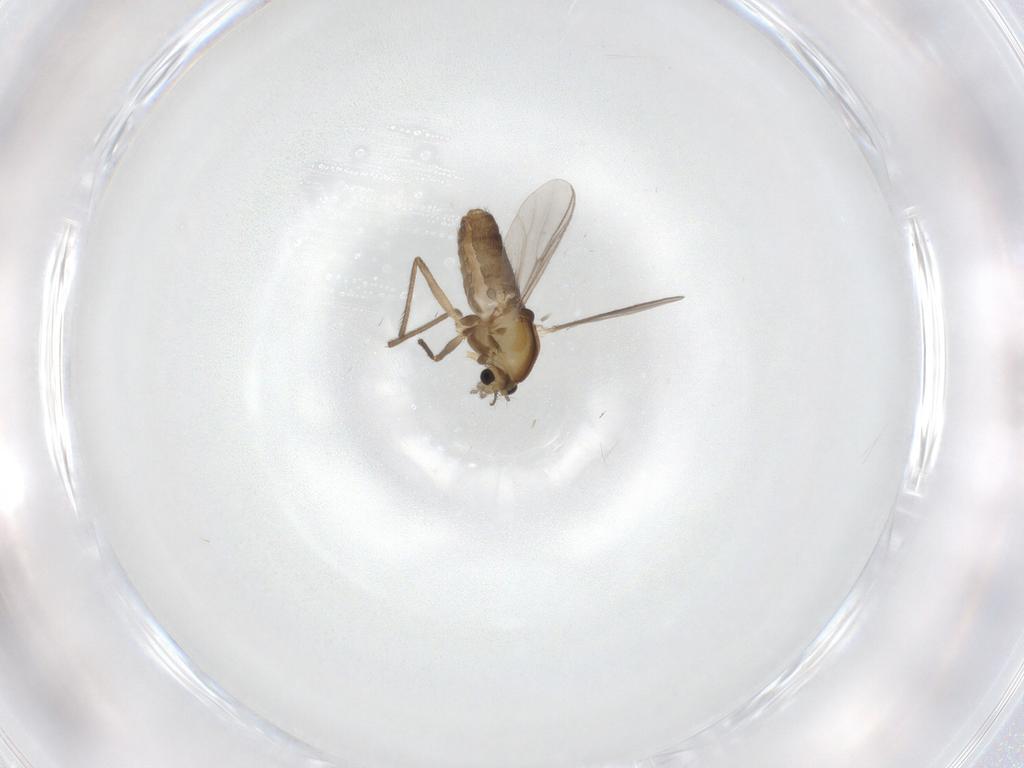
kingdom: Animalia
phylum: Arthropoda
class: Insecta
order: Diptera
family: Chironomidae
